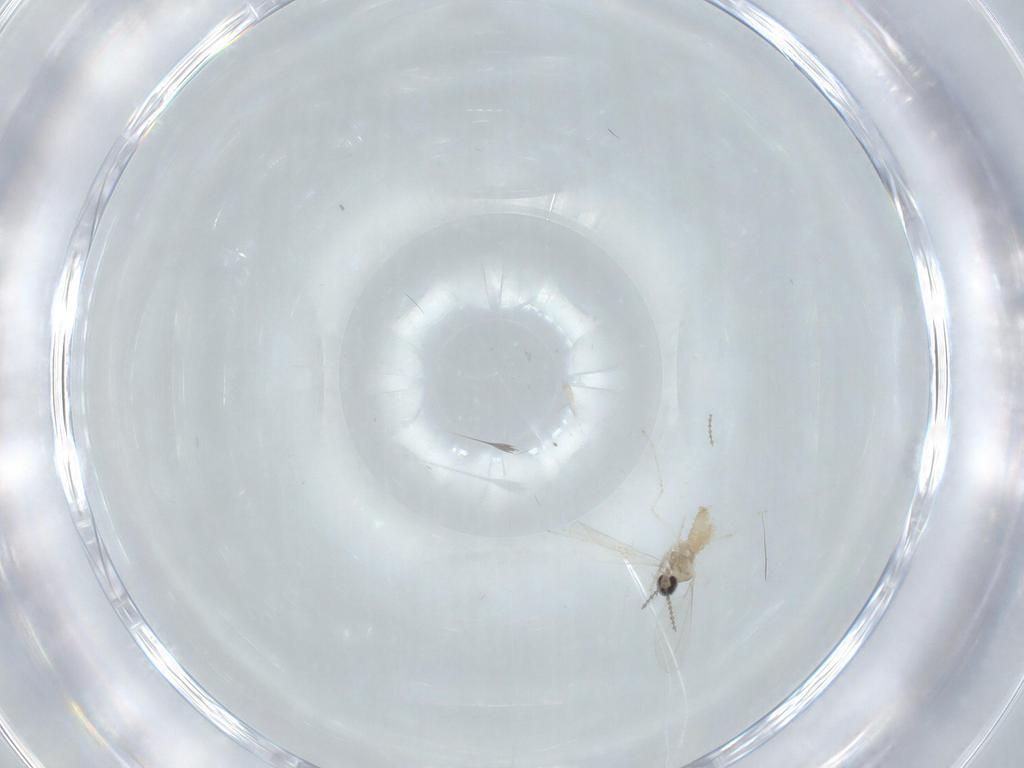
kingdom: Animalia
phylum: Arthropoda
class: Insecta
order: Diptera
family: Cecidomyiidae
